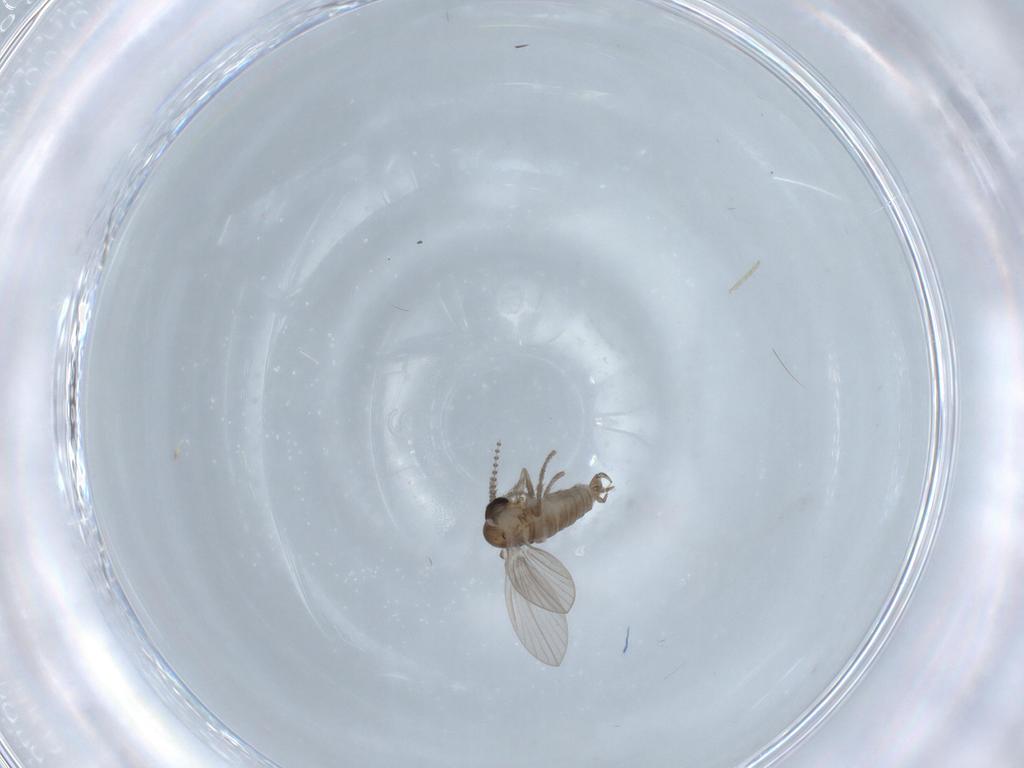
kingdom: Animalia
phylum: Arthropoda
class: Insecta
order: Diptera
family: Psychodidae
